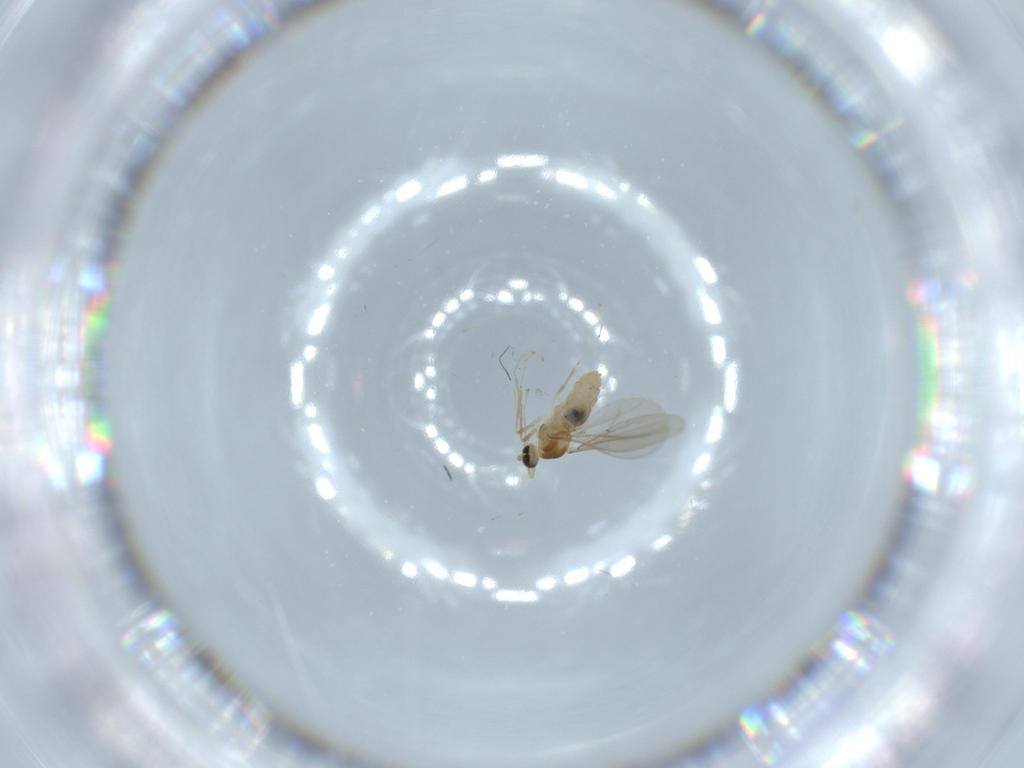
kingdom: Animalia
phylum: Arthropoda
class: Insecta
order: Diptera
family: Cecidomyiidae
